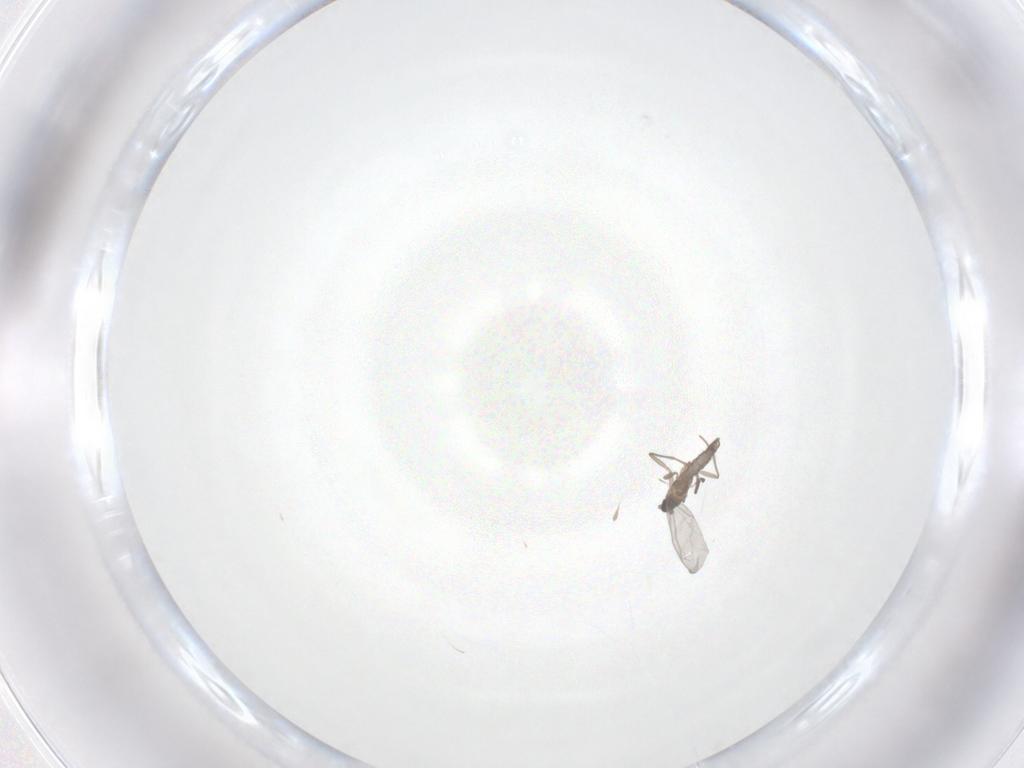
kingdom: Animalia
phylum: Arthropoda
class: Insecta
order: Diptera
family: Sciaridae
